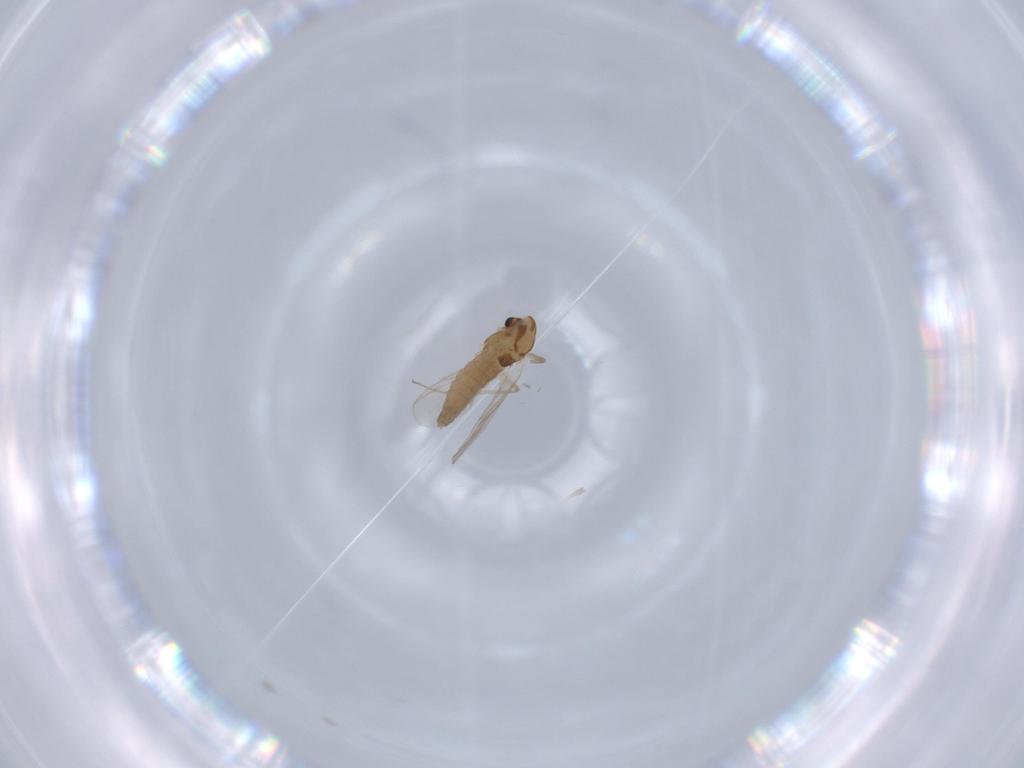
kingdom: Animalia
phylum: Arthropoda
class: Insecta
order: Diptera
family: Chironomidae
